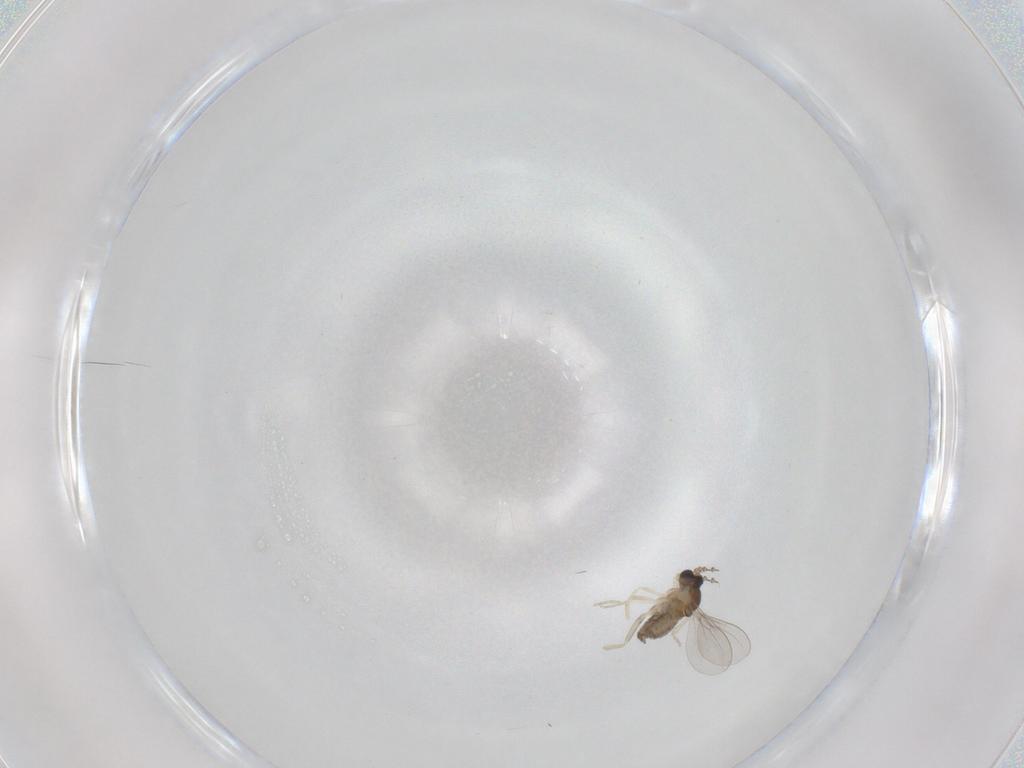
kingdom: Animalia
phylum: Arthropoda
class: Insecta
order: Diptera
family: Cecidomyiidae
